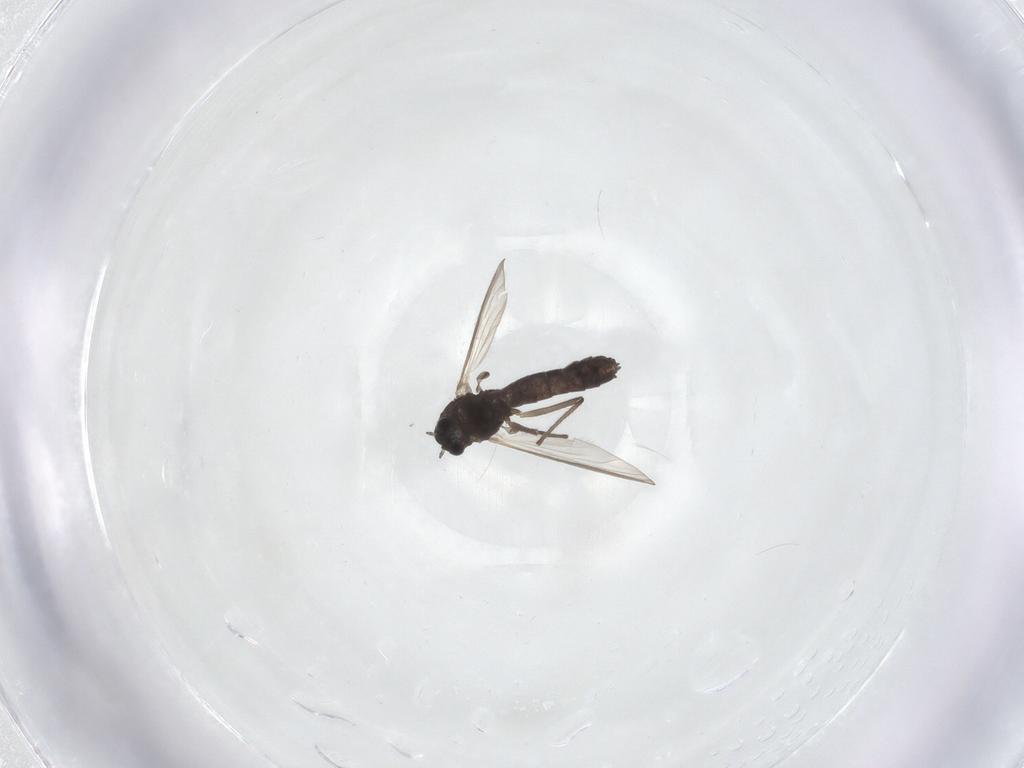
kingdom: Animalia
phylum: Arthropoda
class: Insecta
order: Diptera
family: Chironomidae
